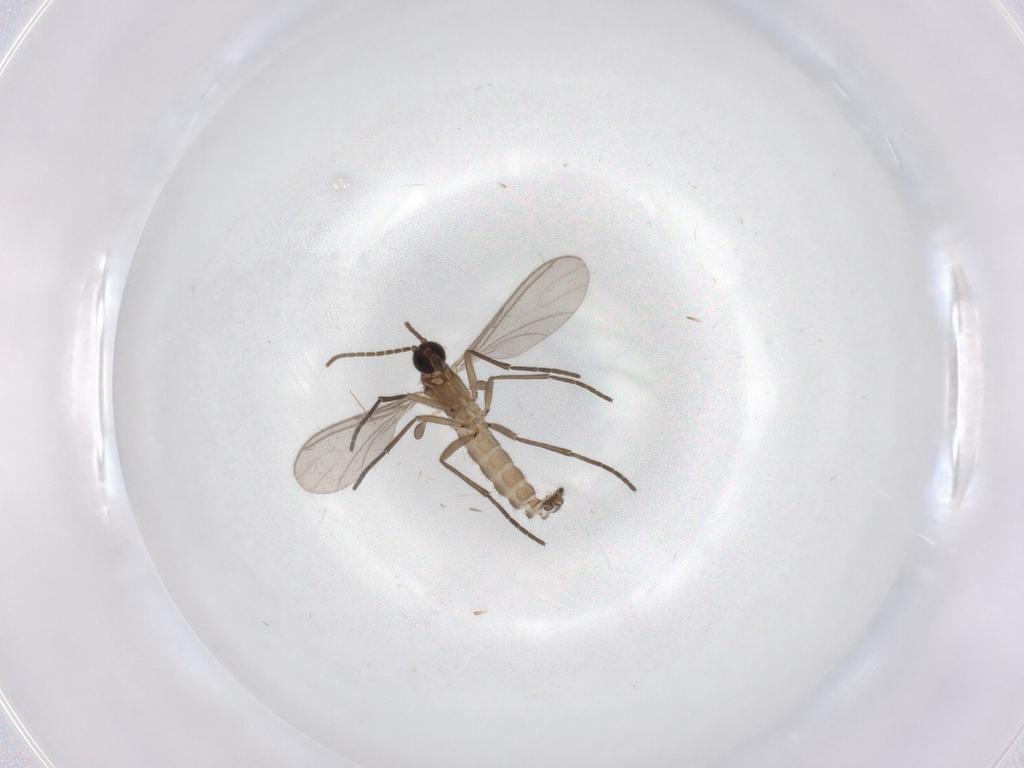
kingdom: Animalia
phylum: Arthropoda
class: Insecta
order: Diptera
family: Sciaridae
